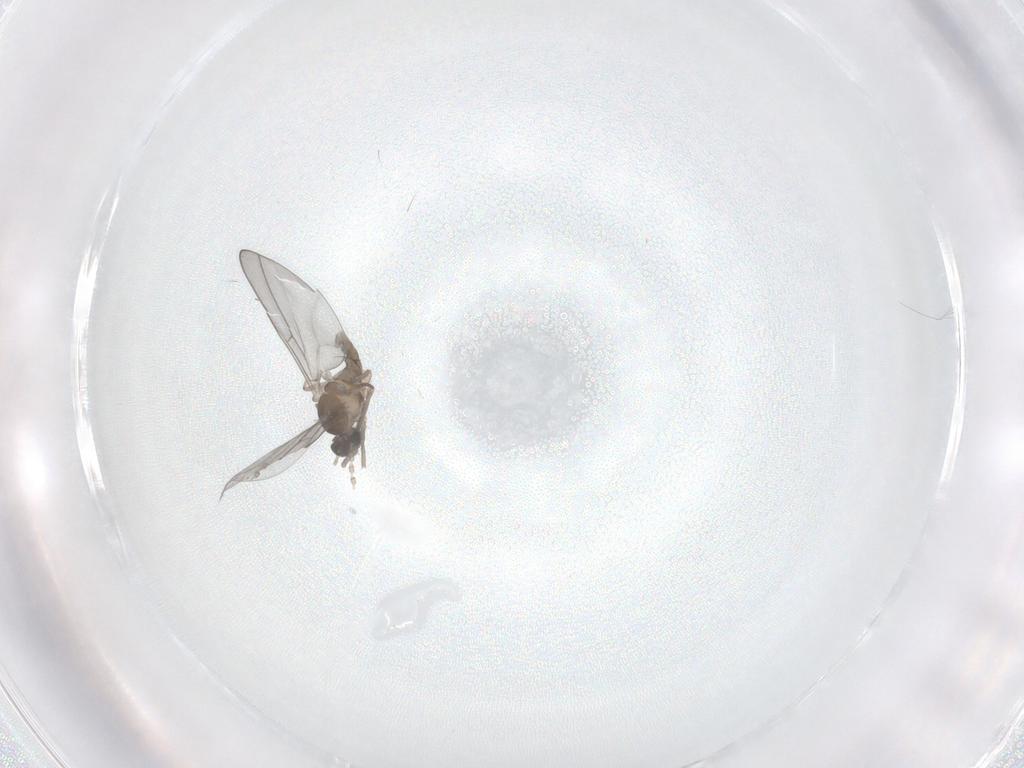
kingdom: Animalia
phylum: Arthropoda
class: Insecta
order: Diptera
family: Cecidomyiidae
